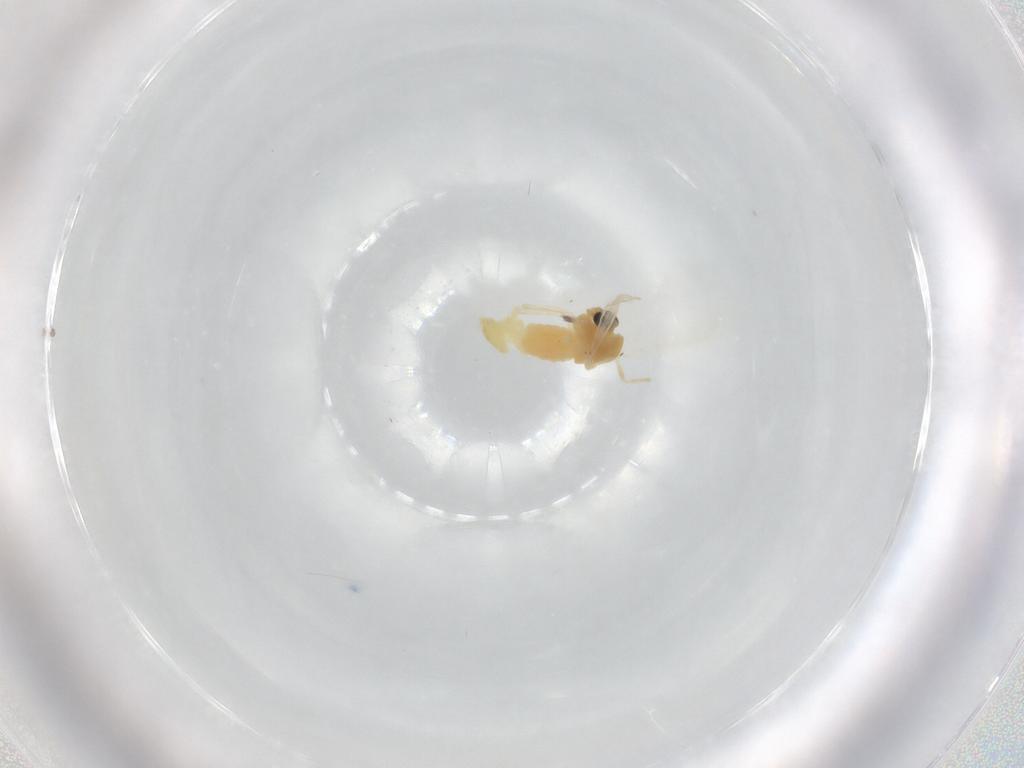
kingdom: Animalia
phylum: Arthropoda
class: Insecta
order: Diptera
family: Chironomidae
